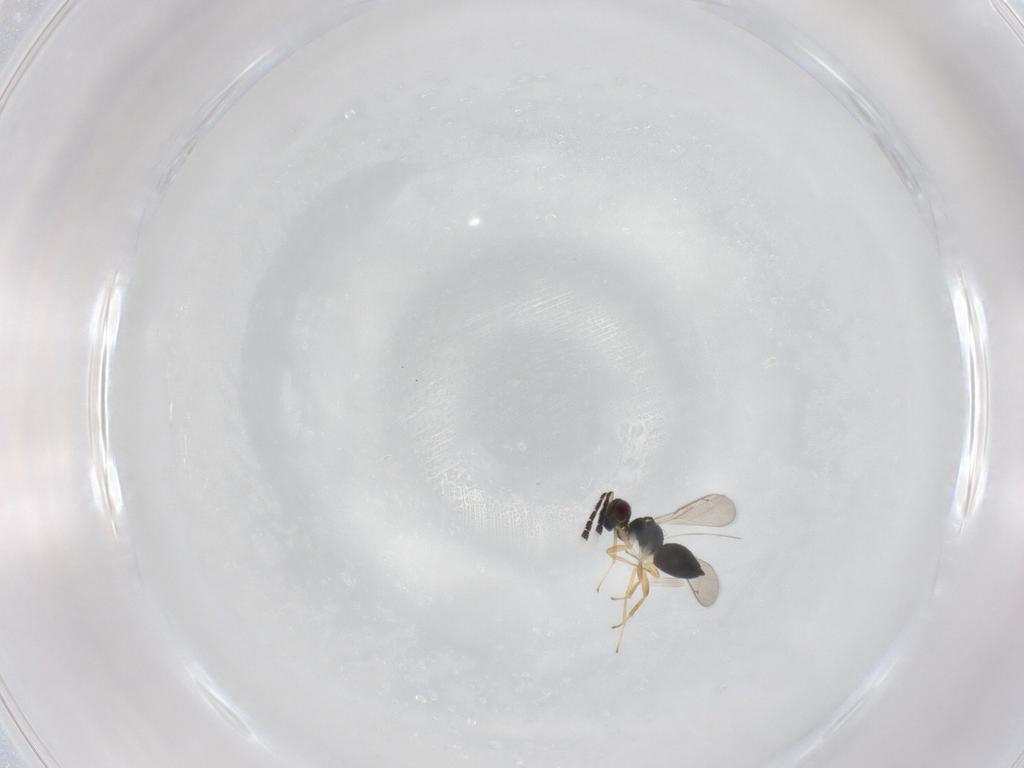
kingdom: Animalia
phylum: Arthropoda
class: Insecta
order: Hymenoptera
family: Eulophidae
